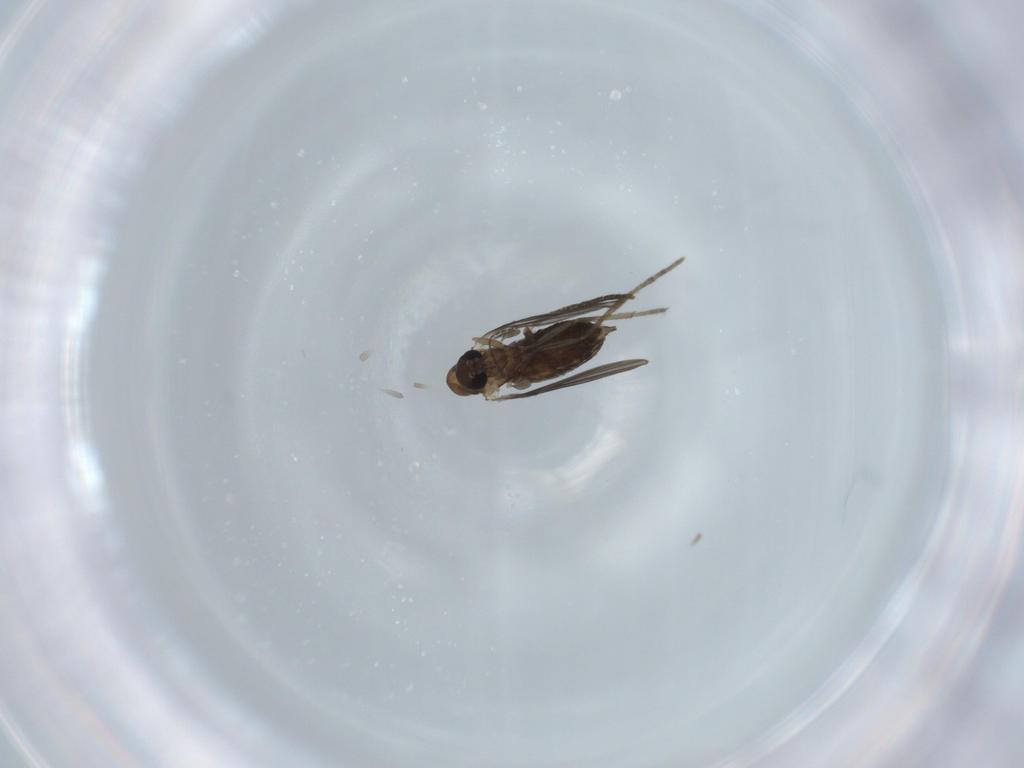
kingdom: Animalia
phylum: Arthropoda
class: Insecta
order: Diptera
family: Psychodidae
